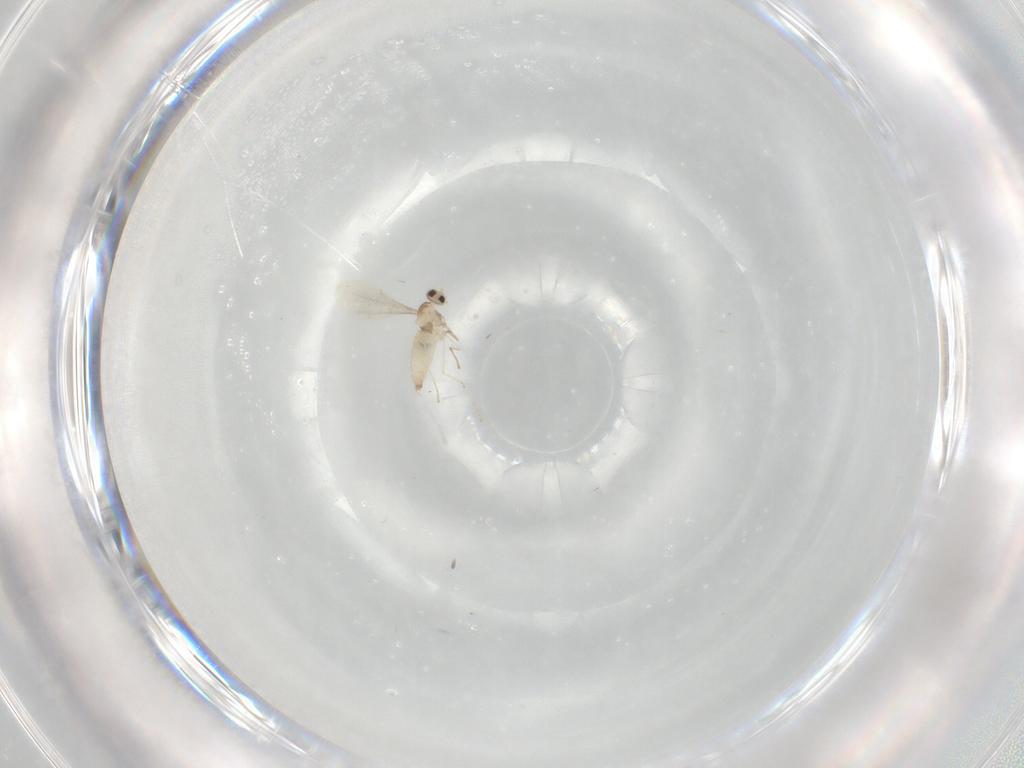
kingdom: Animalia
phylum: Arthropoda
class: Insecta
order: Diptera
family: Cecidomyiidae
